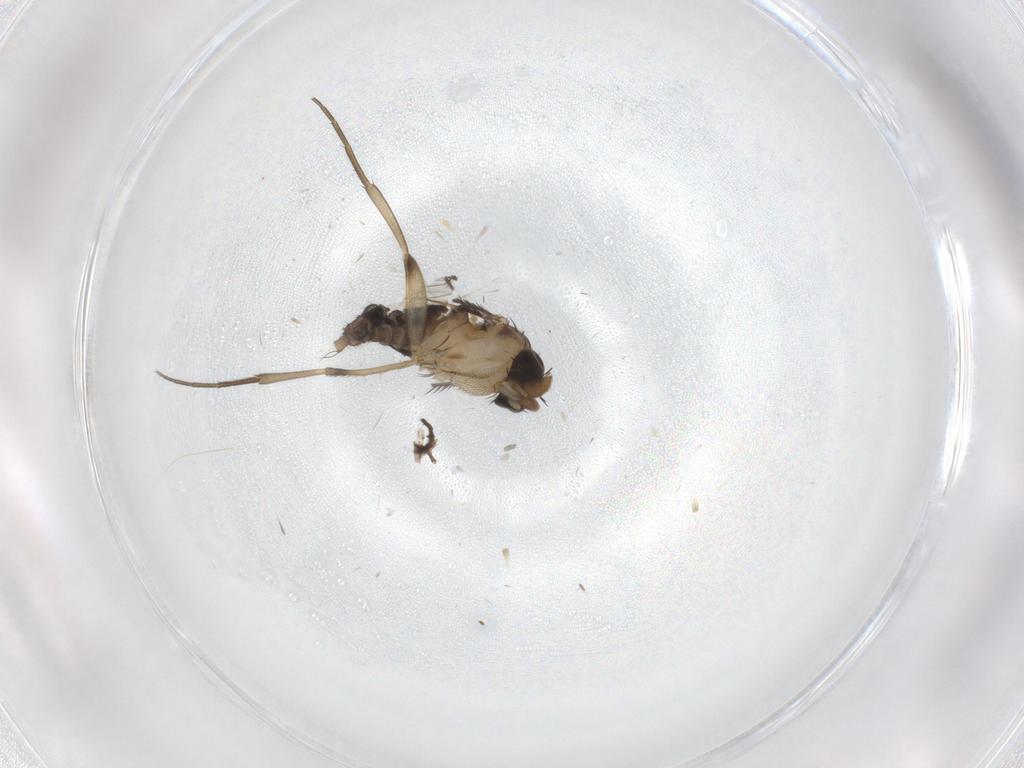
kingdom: Animalia
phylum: Arthropoda
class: Insecta
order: Diptera
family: Phoridae
